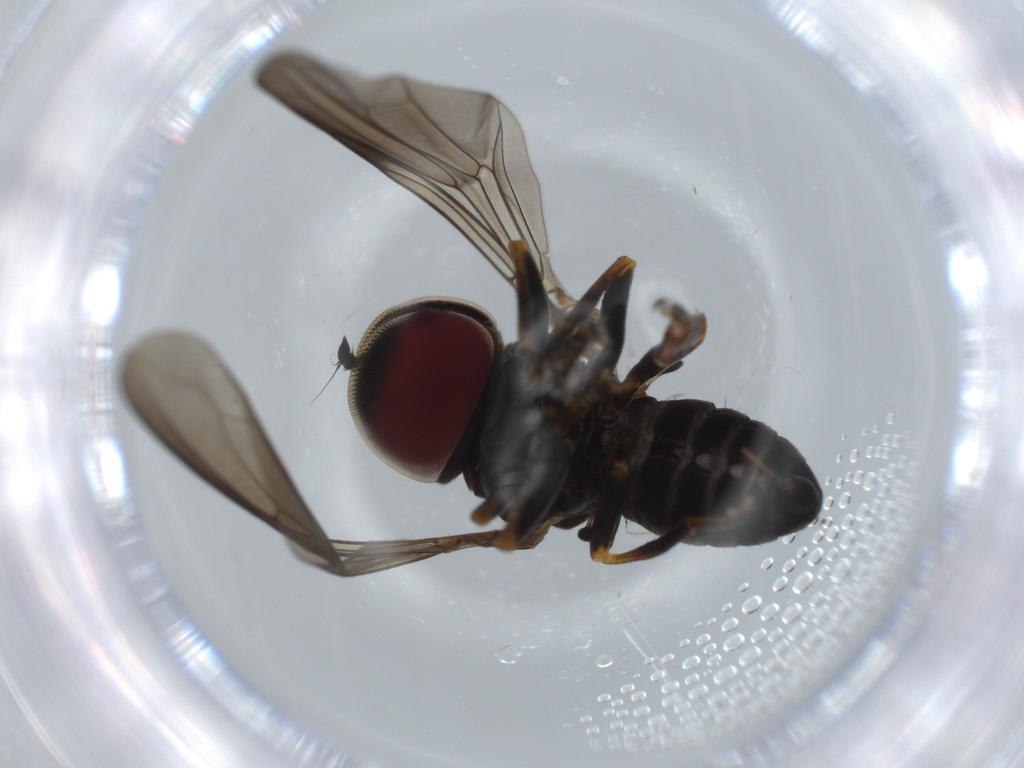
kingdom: Animalia
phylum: Arthropoda
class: Insecta
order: Diptera
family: Pipunculidae
